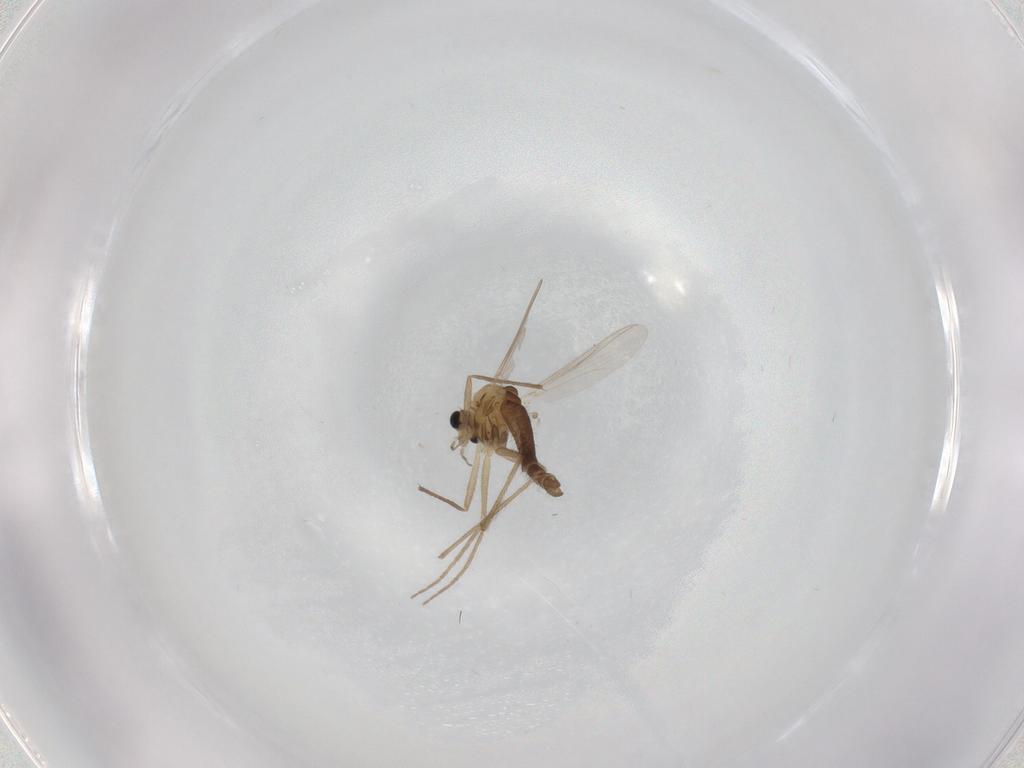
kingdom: Animalia
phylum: Arthropoda
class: Insecta
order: Diptera
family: Chironomidae
